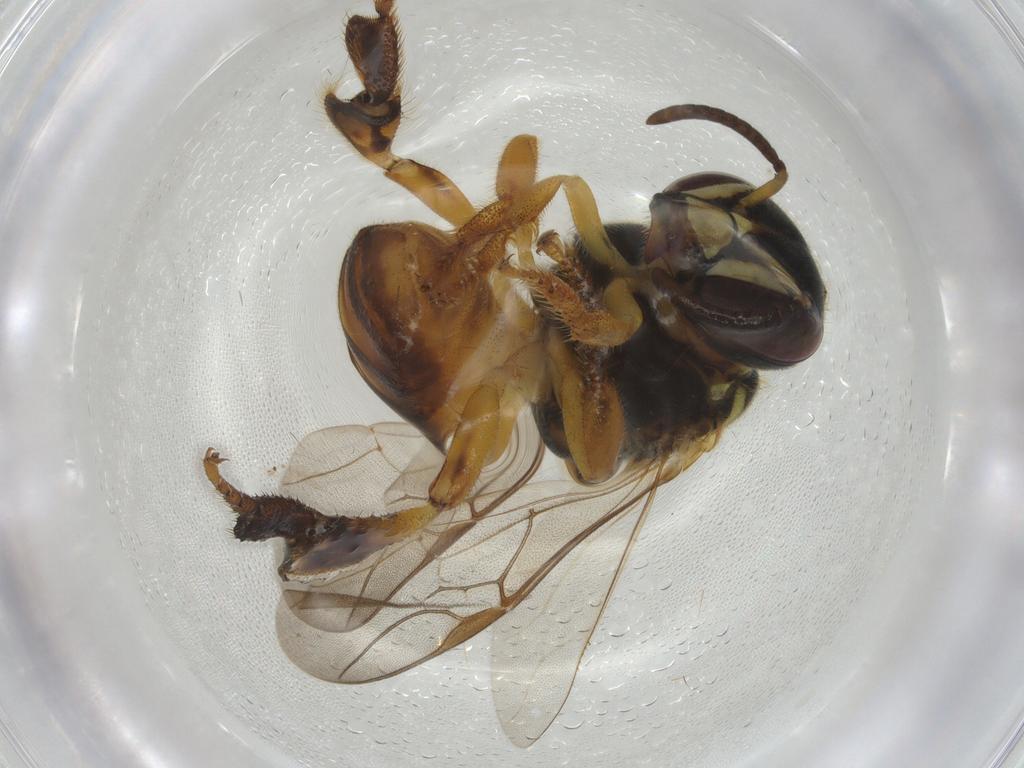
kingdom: Animalia
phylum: Arthropoda
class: Insecta
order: Hymenoptera
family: Apidae
